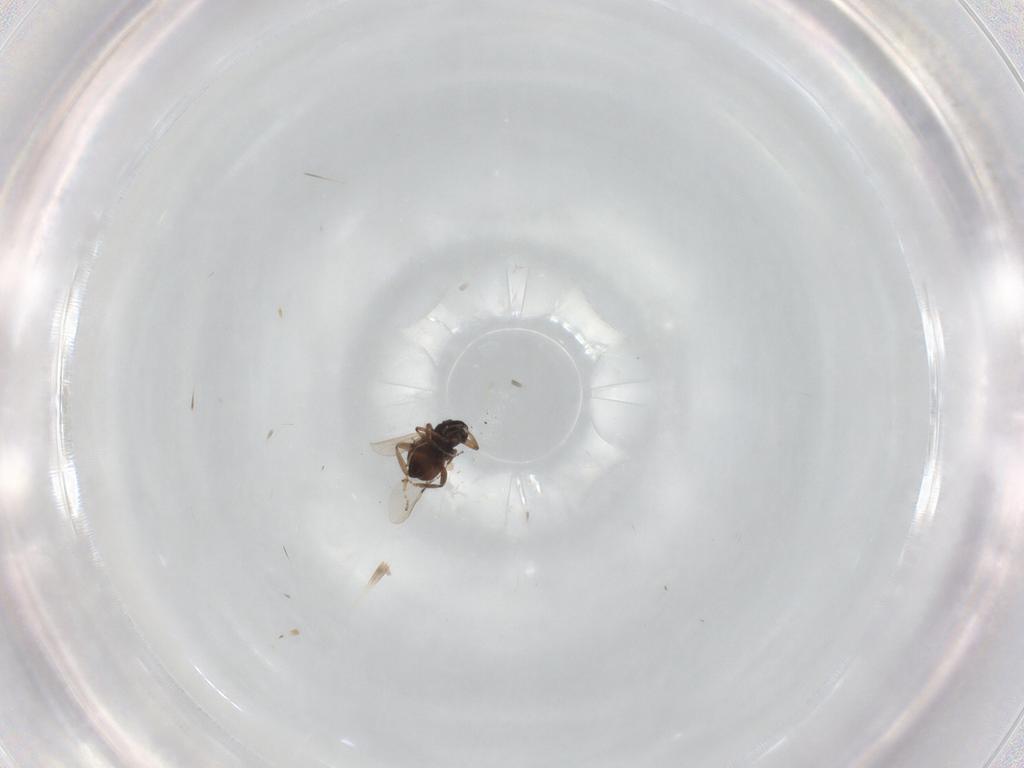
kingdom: Animalia
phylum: Arthropoda
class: Insecta
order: Diptera
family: Ceratopogonidae
